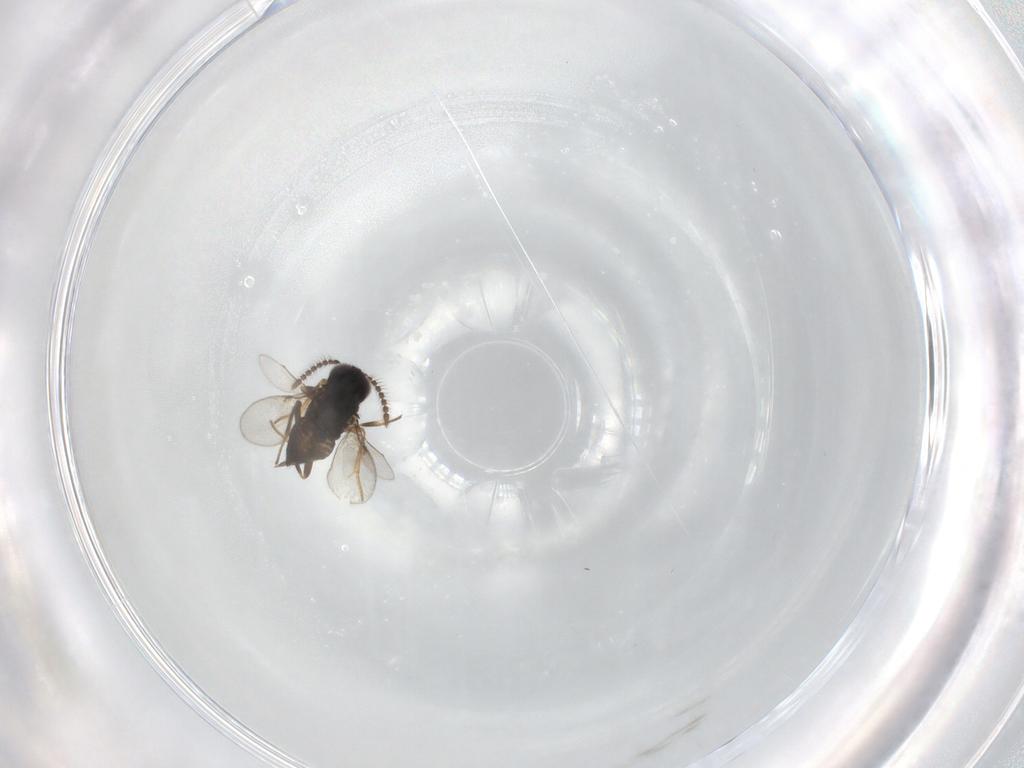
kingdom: Animalia
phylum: Arthropoda
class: Insecta
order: Hymenoptera
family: Encyrtidae
